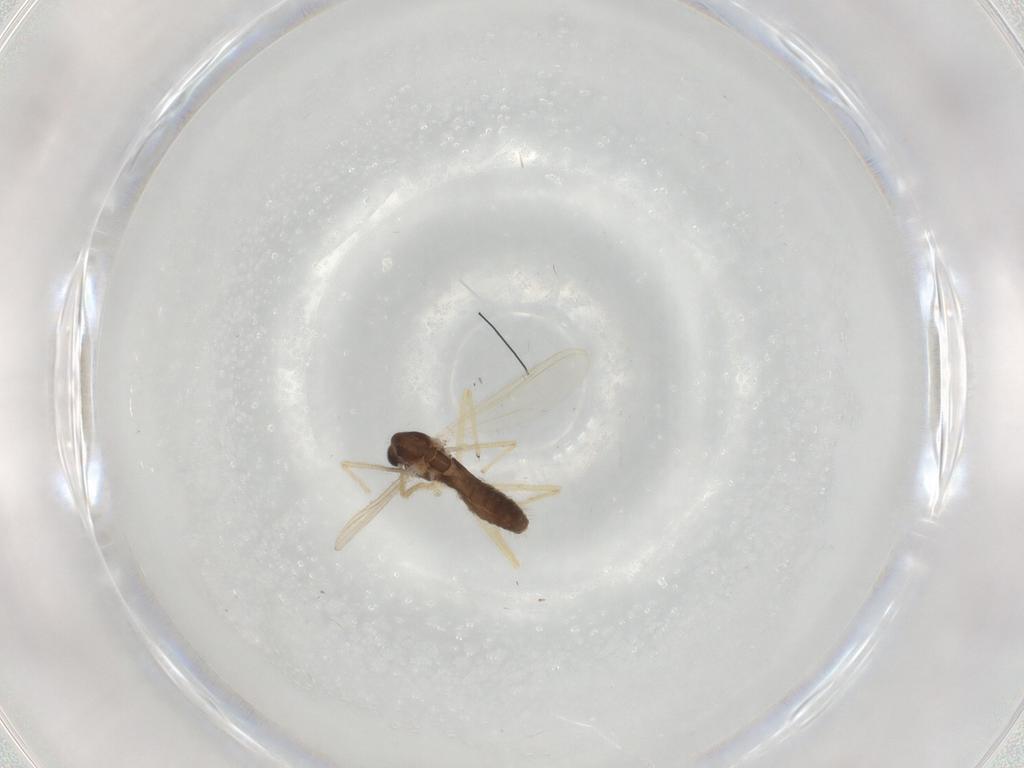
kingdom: Animalia
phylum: Arthropoda
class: Insecta
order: Diptera
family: Chironomidae
